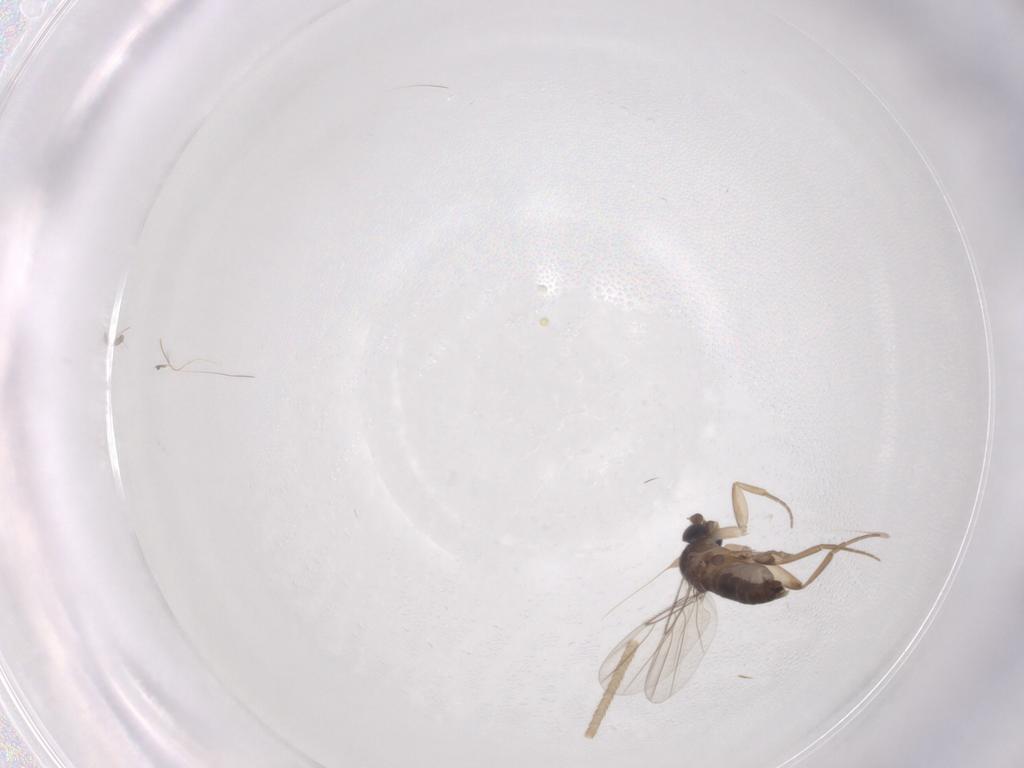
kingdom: Animalia
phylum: Arthropoda
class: Insecta
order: Diptera
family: Phoridae
